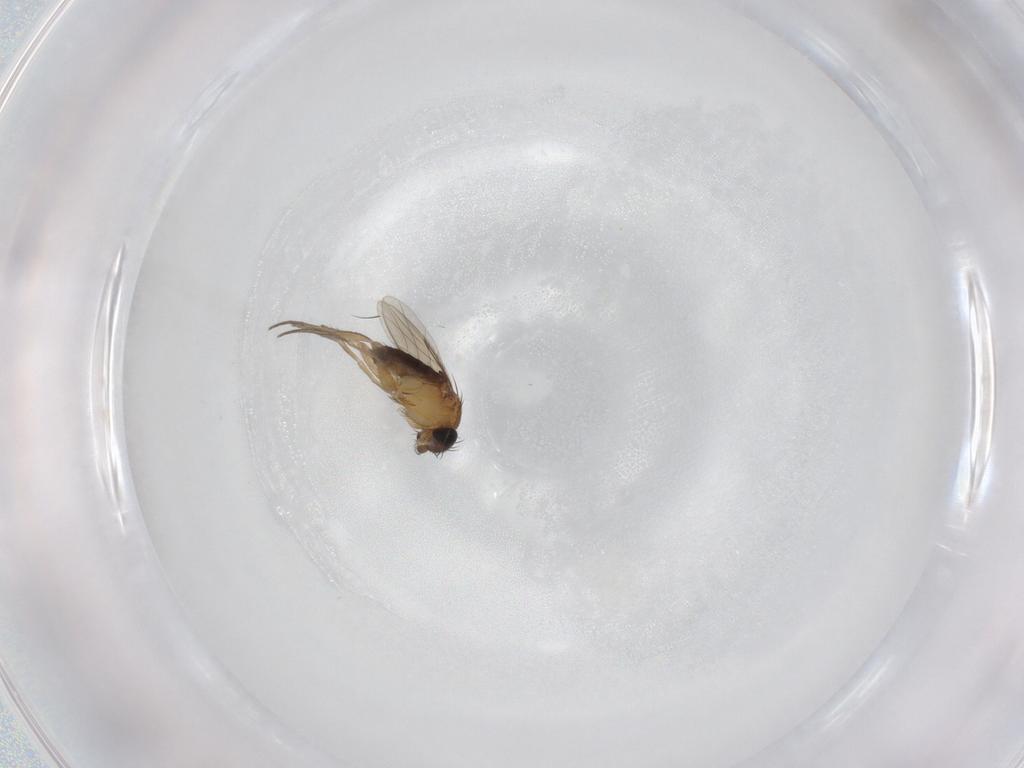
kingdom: Animalia
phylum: Arthropoda
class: Insecta
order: Diptera
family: Phoridae
